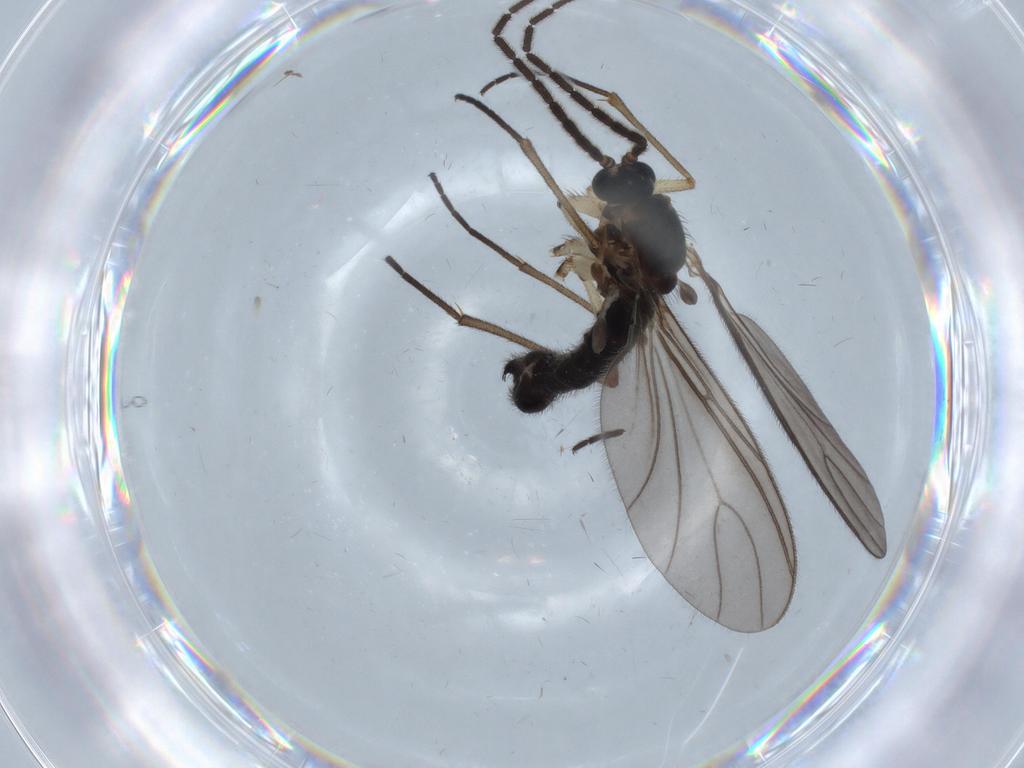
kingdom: Animalia
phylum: Arthropoda
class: Insecta
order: Diptera
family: Sciaridae
